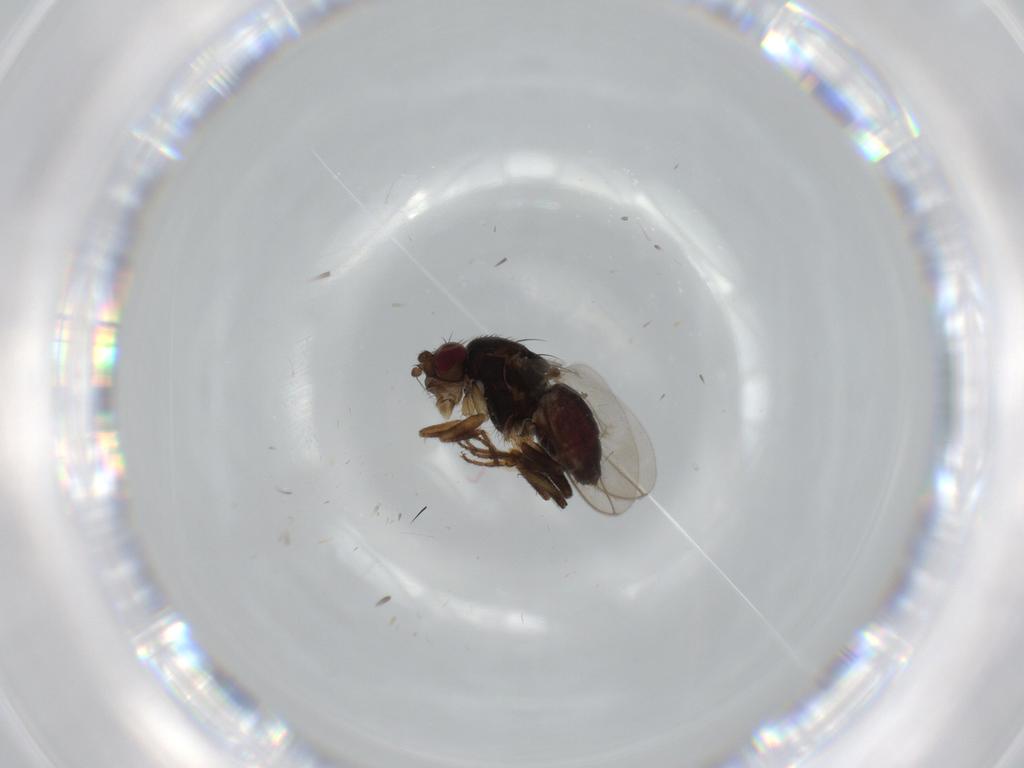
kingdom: Animalia
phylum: Arthropoda
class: Insecta
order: Diptera
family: Sphaeroceridae
